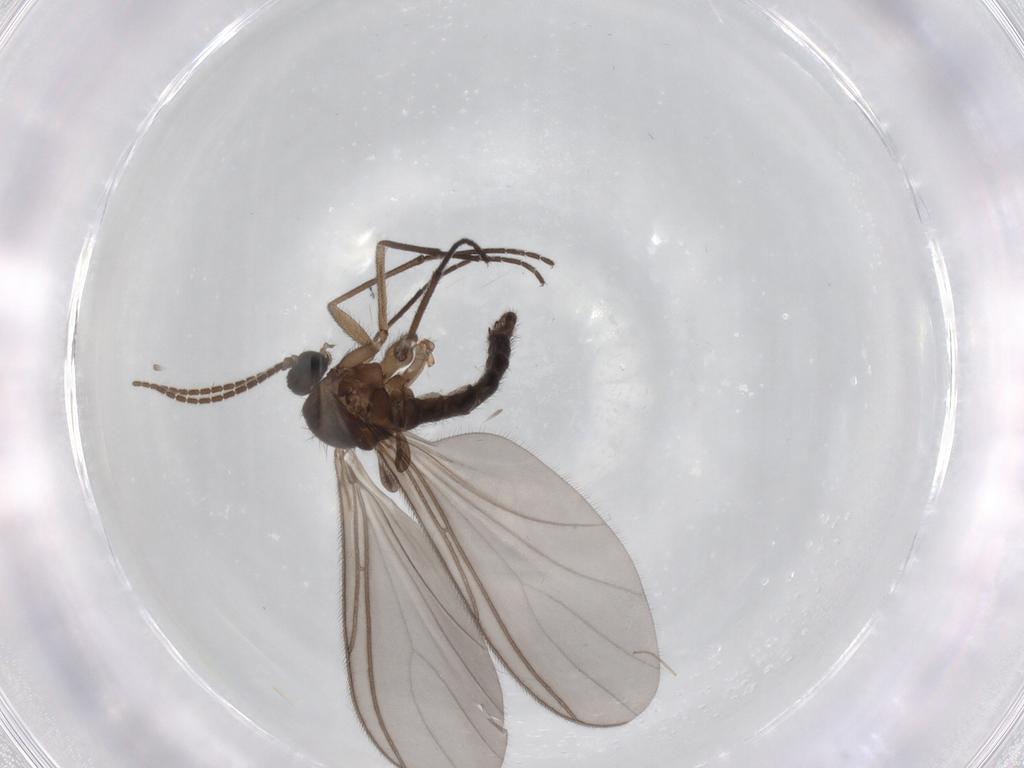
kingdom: Animalia
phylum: Arthropoda
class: Insecta
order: Diptera
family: Sciaridae
